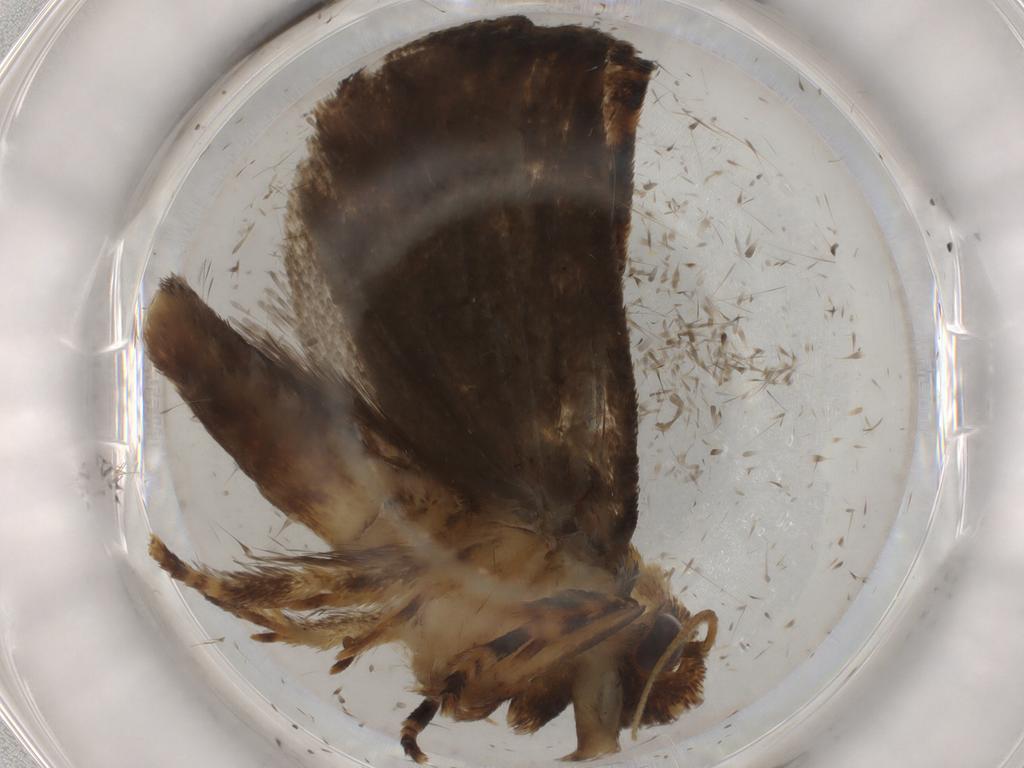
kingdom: Animalia
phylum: Arthropoda
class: Insecta
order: Lepidoptera
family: Tineidae
